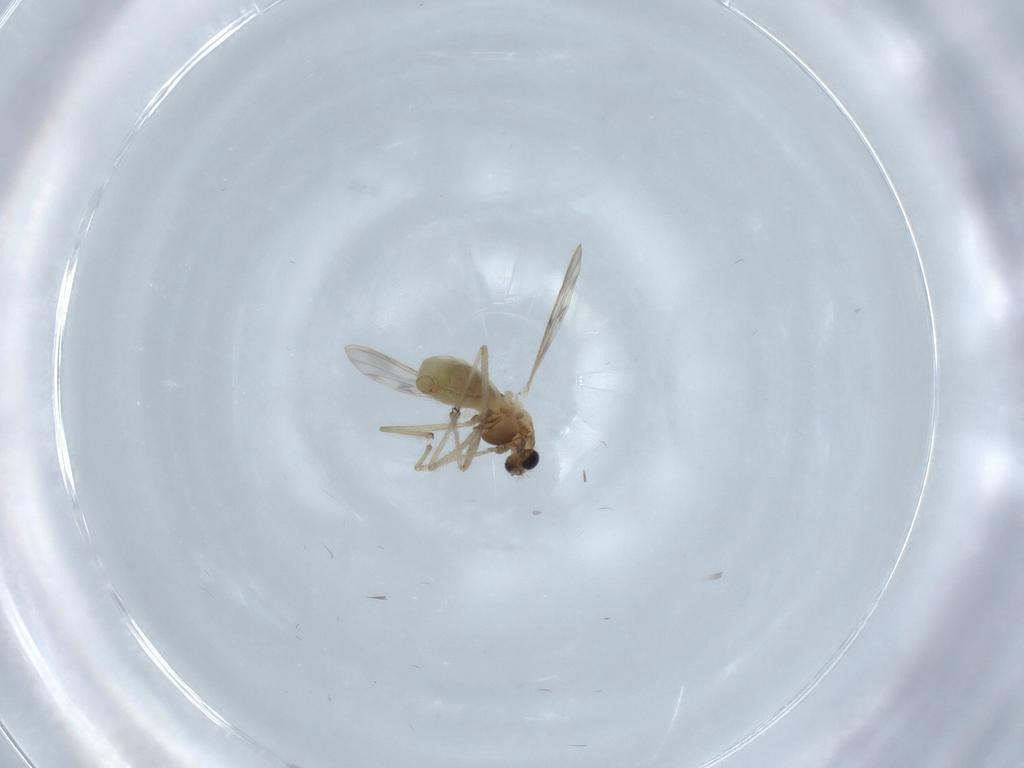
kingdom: Animalia
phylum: Arthropoda
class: Insecta
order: Diptera
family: Chironomidae
